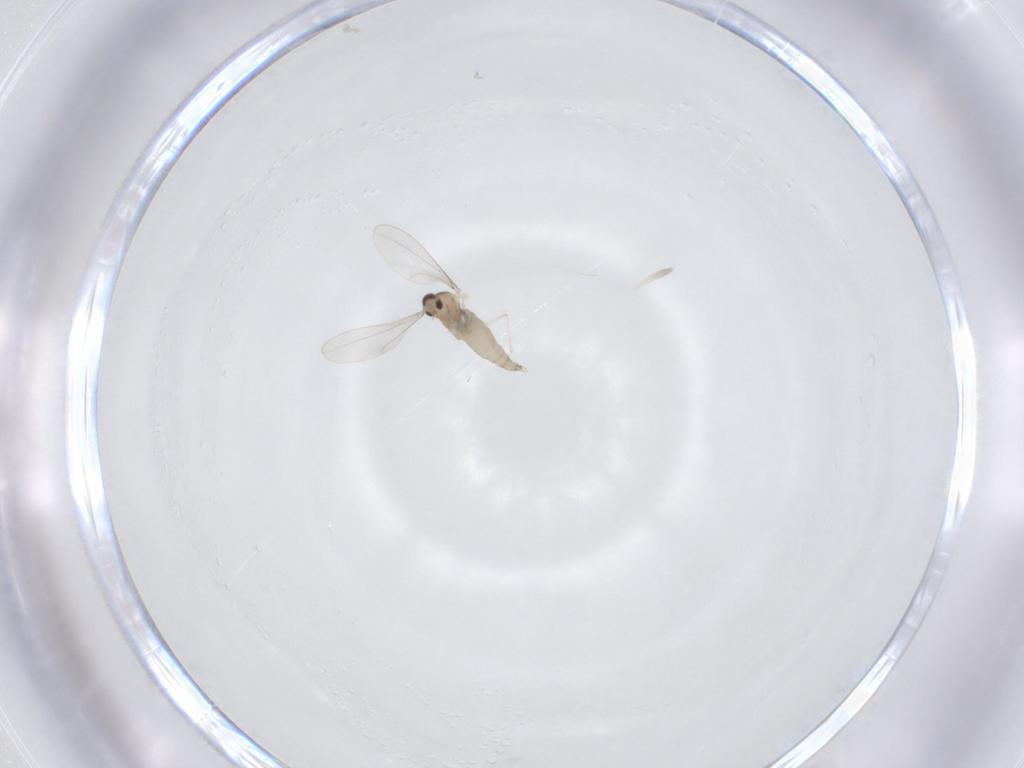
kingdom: Animalia
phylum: Arthropoda
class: Insecta
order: Diptera
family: Cecidomyiidae
